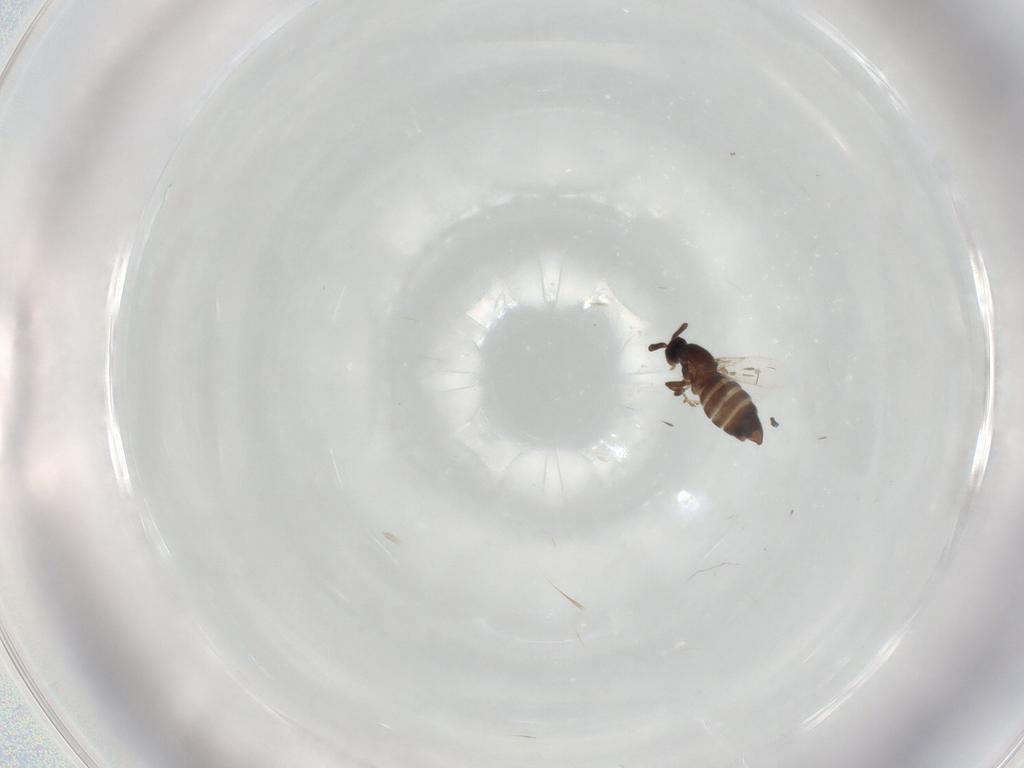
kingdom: Animalia
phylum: Arthropoda
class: Insecta
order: Diptera
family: Scatopsidae
